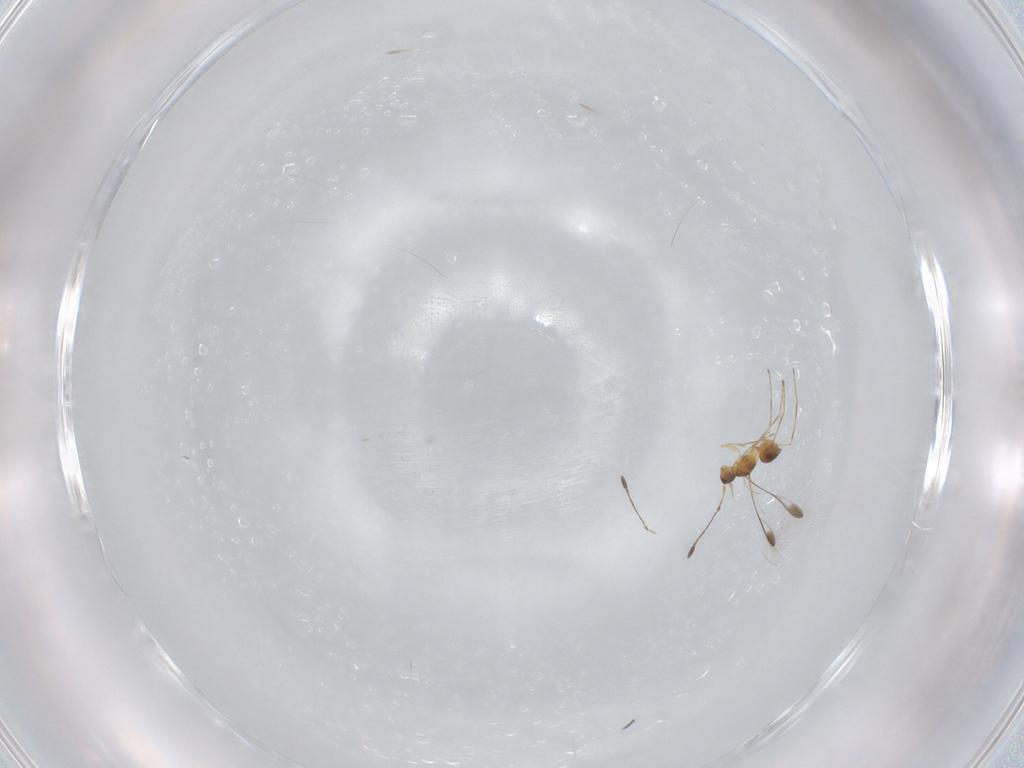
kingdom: Animalia
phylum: Arthropoda
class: Insecta
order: Hymenoptera
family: Mymaridae
